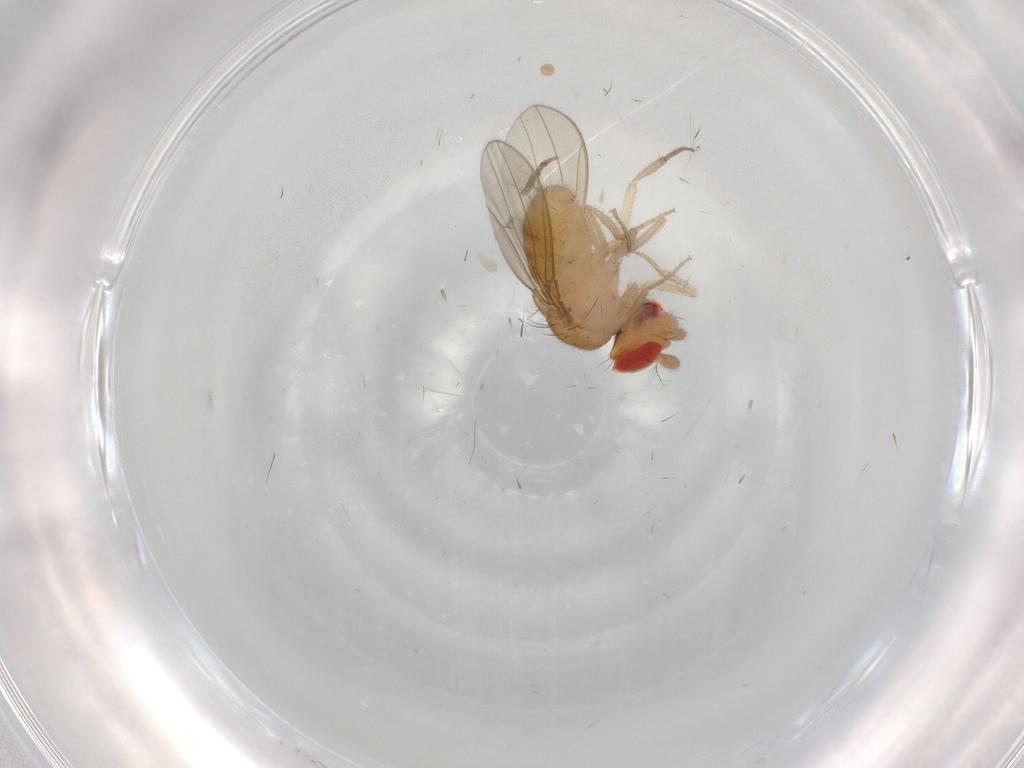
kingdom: Animalia
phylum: Arthropoda
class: Insecta
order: Diptera
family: Drosophilidae
